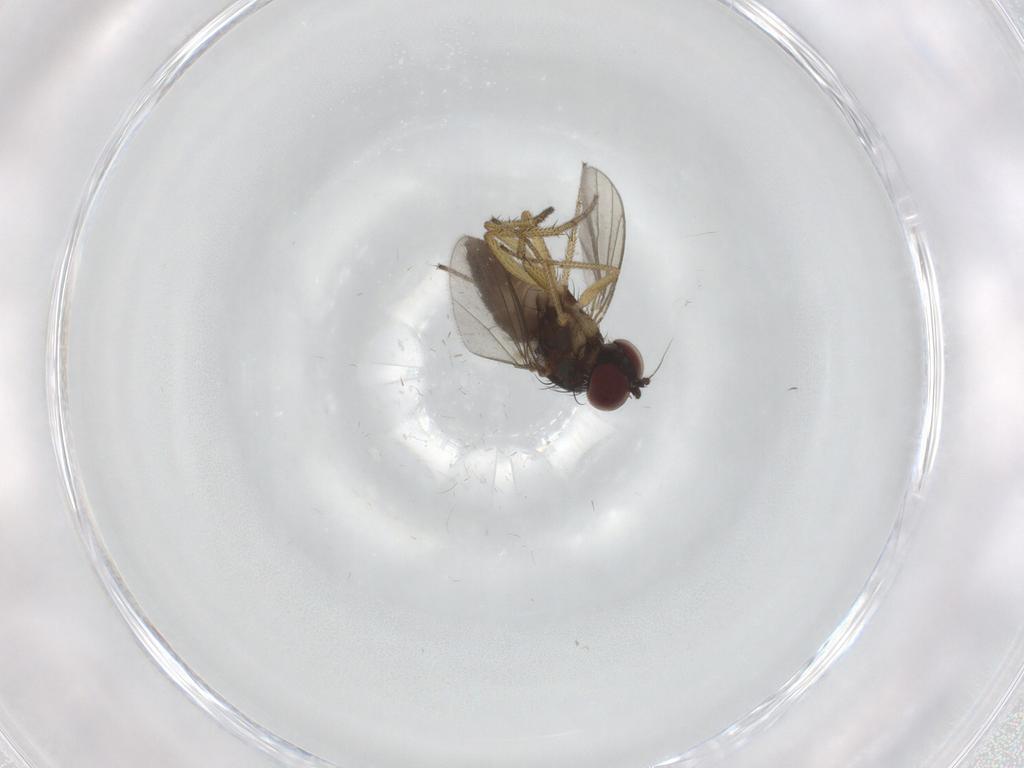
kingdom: Animalia
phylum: Arthropoda
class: Insecta
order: Diptera
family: Dolichopodidae
